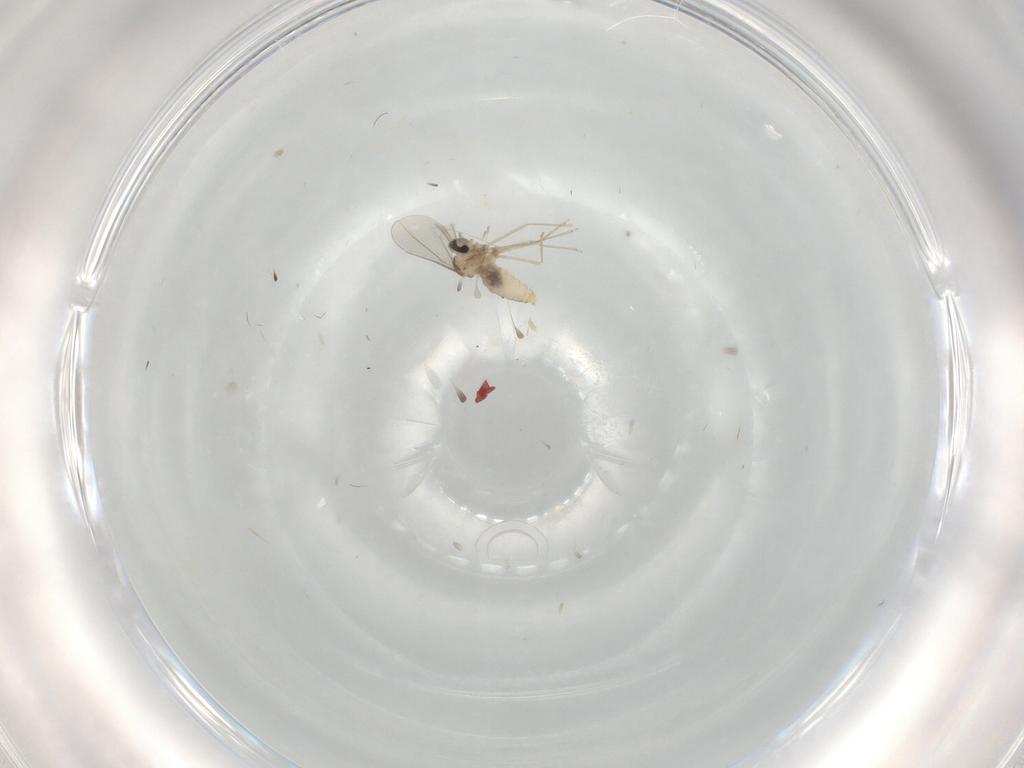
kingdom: Animalia
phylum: Arthropoda
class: Insecta
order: Diptera
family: Cecidomyiidae
